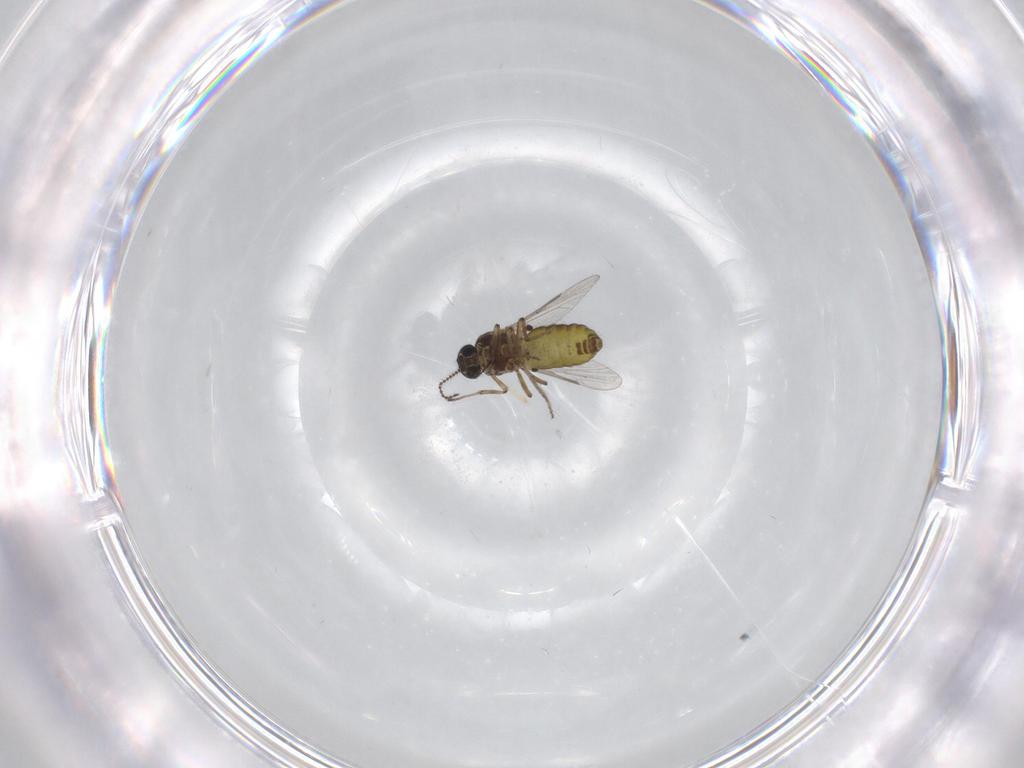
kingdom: Animalia
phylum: Arthropoda
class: Insecta
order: Diptera
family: Ceratopogonidae
